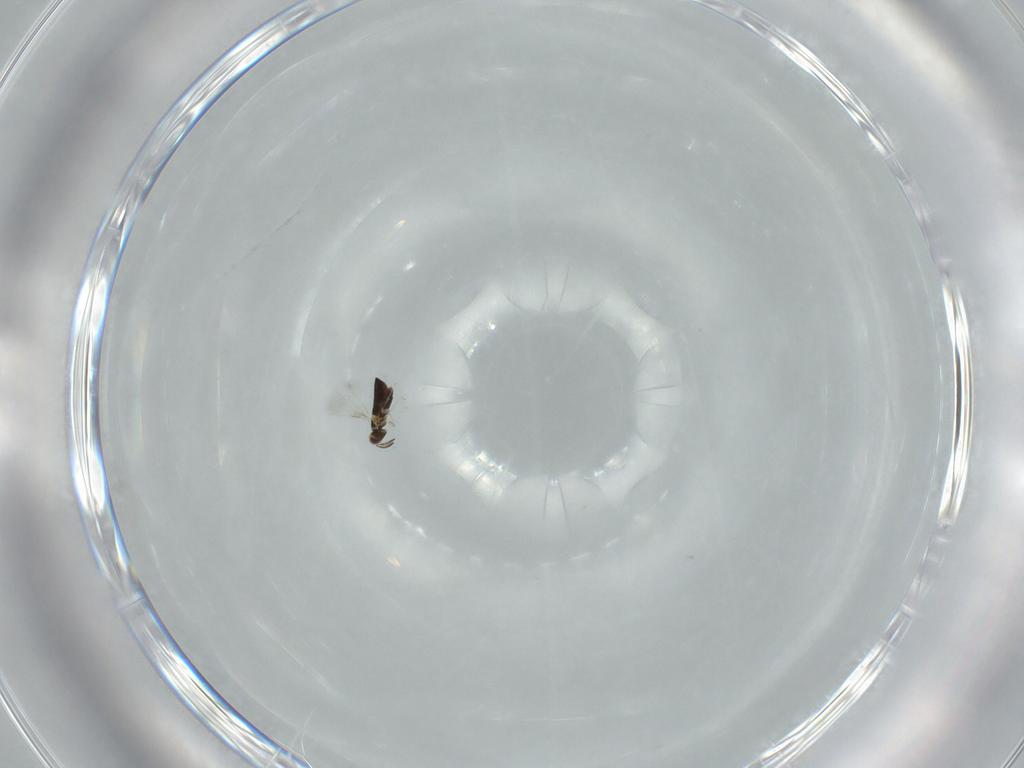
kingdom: Animalia
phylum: Arthropoda
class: Insecta
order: Hymenoptera
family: Signiphoridae
